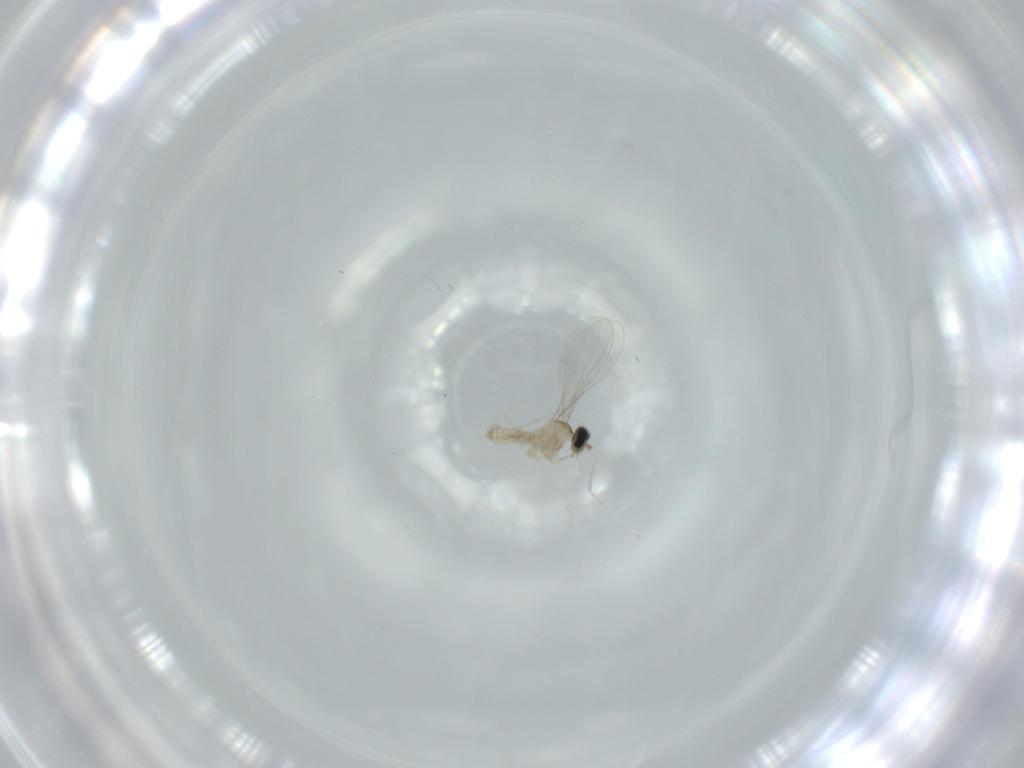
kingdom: Animalia
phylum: Arthropoda
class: Insecta
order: Diptera
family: Cecidomyiidae
